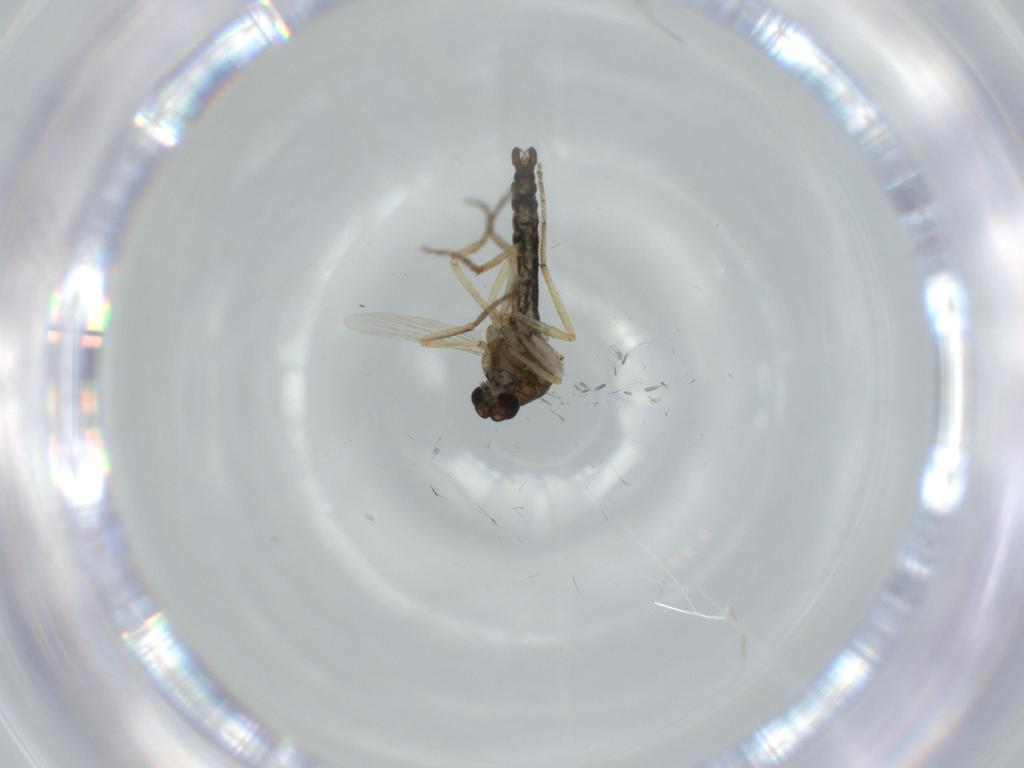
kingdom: Animalia
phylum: Arthropoda
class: Insecta
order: Diptera
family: Ceratopogonidae
